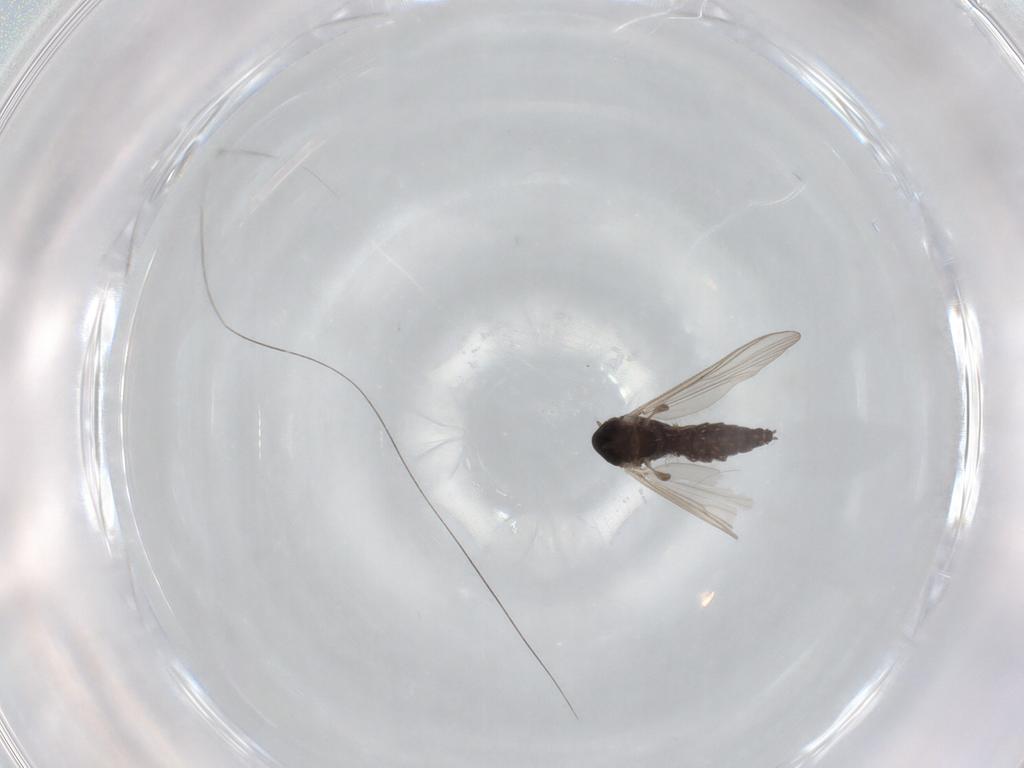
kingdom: Animalia
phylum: Arthropoda
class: Insecta
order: Diptera
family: Chironomidae
